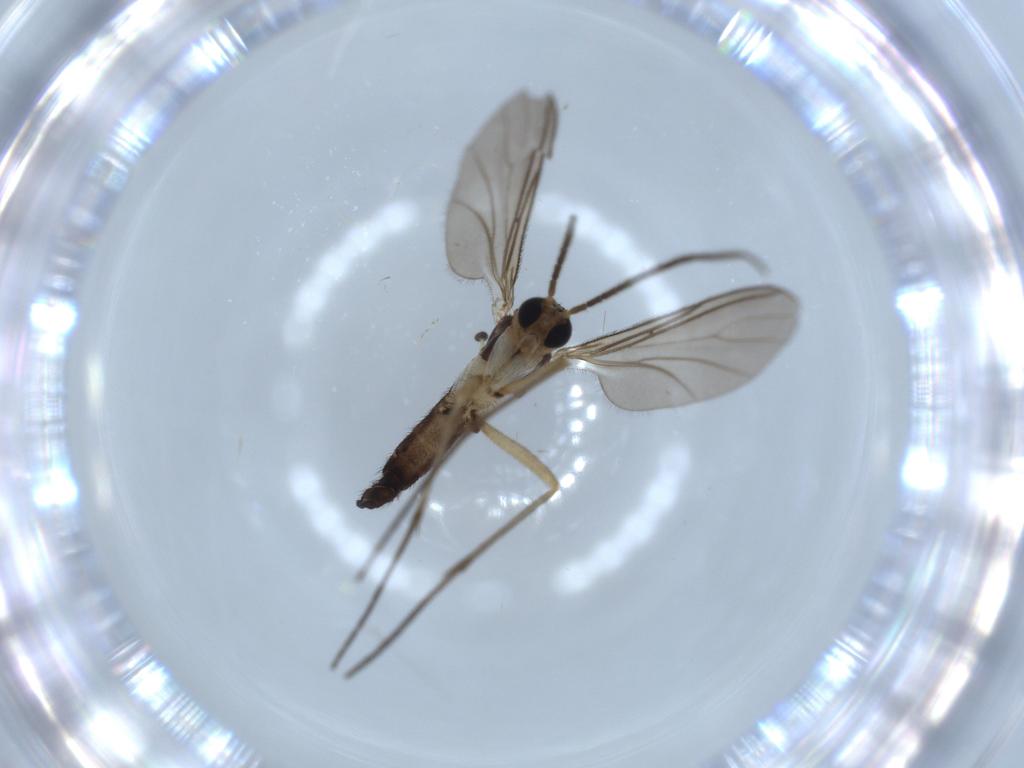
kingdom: Animalia
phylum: Arthropoda
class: Insecta
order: Diptera
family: Sciaridae
